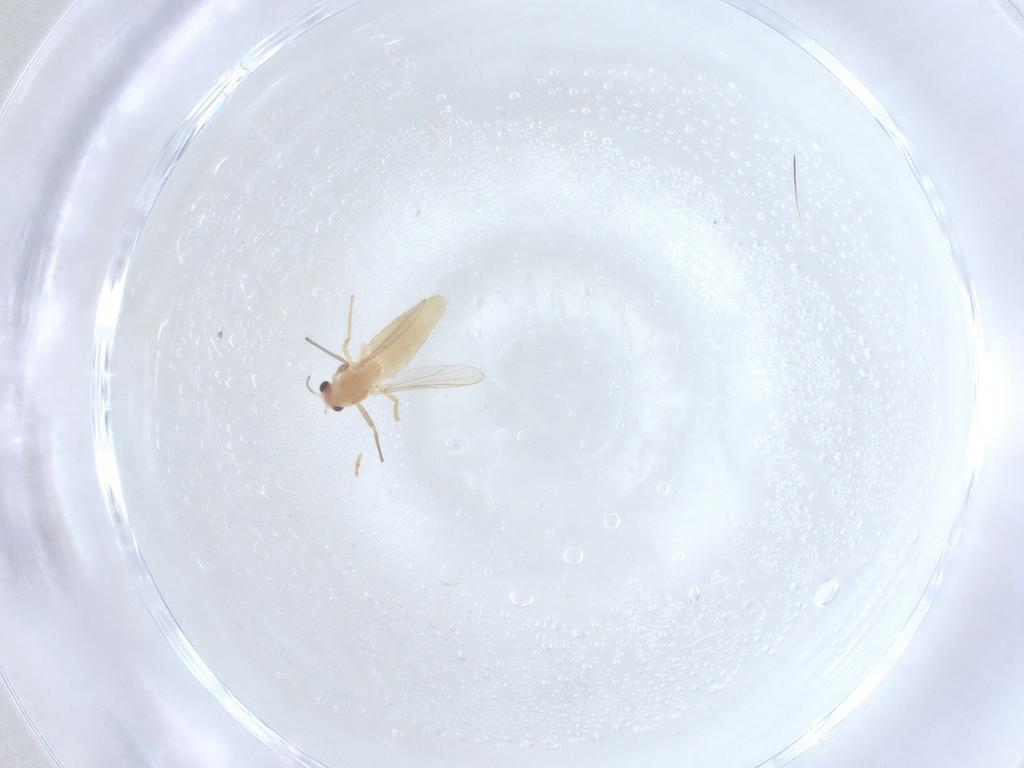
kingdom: Animalia
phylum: Arthropoda
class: Insecta
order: Diptera
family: Chironomidae
